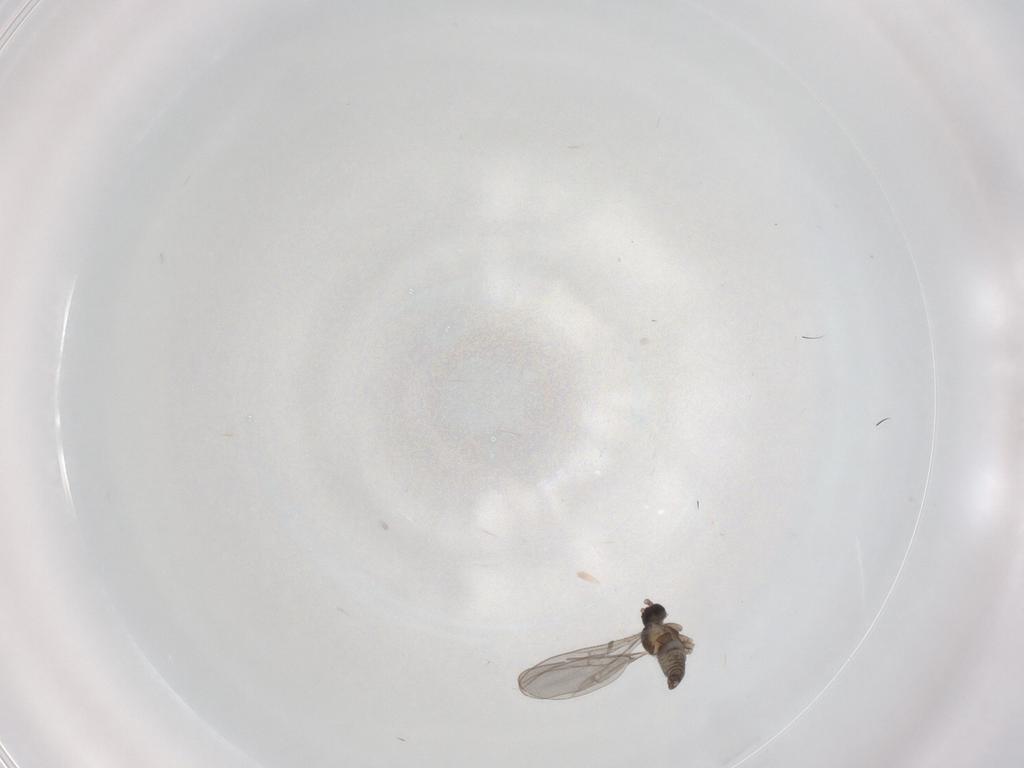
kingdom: Animalia
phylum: Arthropoda
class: Insecta
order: Diptera
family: Cecidomyiidae
